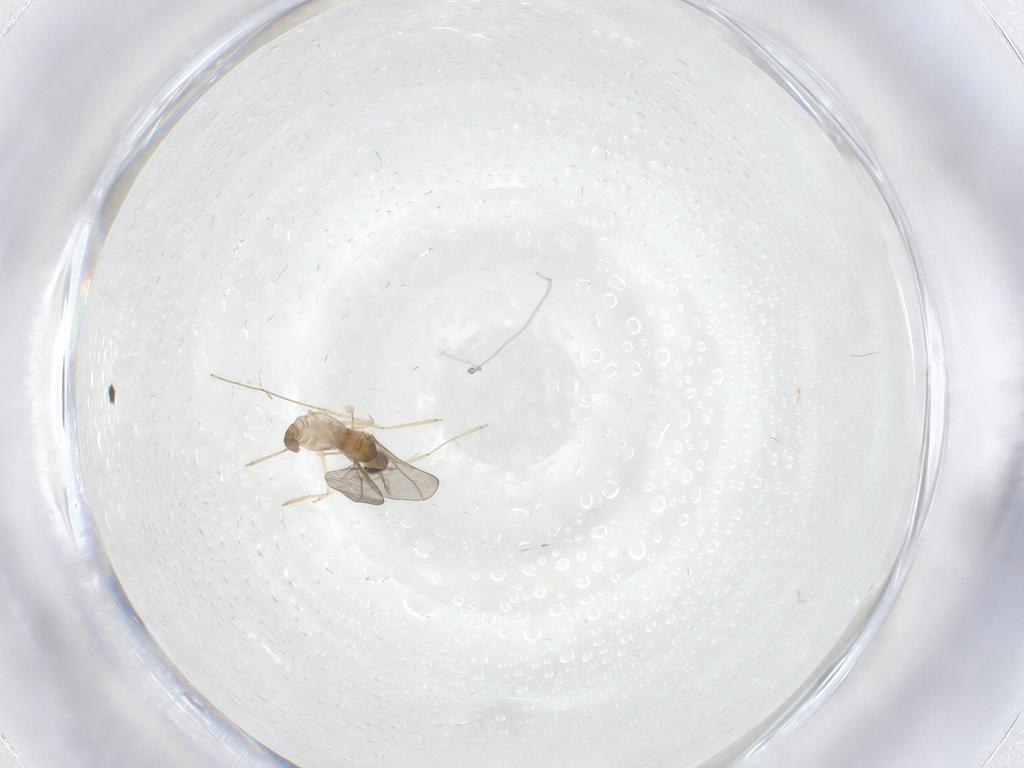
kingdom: Animalia
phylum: Arthropoda
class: Insecta
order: Diptera
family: Cecidomyiidae
